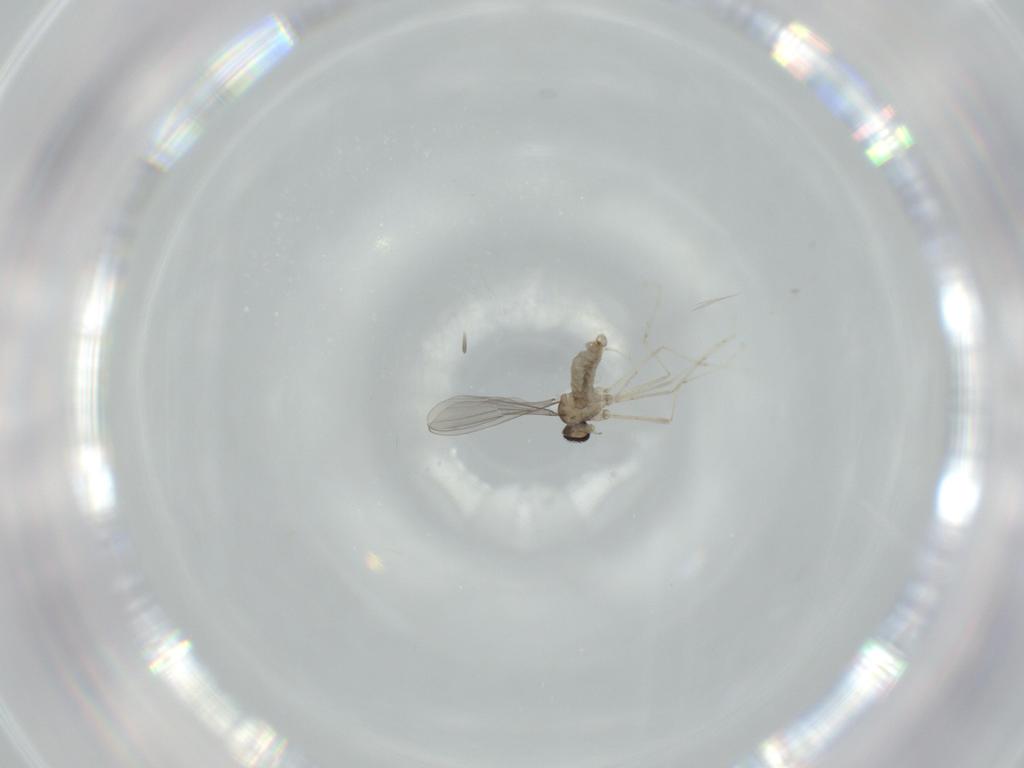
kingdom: Animalia
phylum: Arthropoda
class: Insecta
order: Diptera
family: Cecidomyiidae
